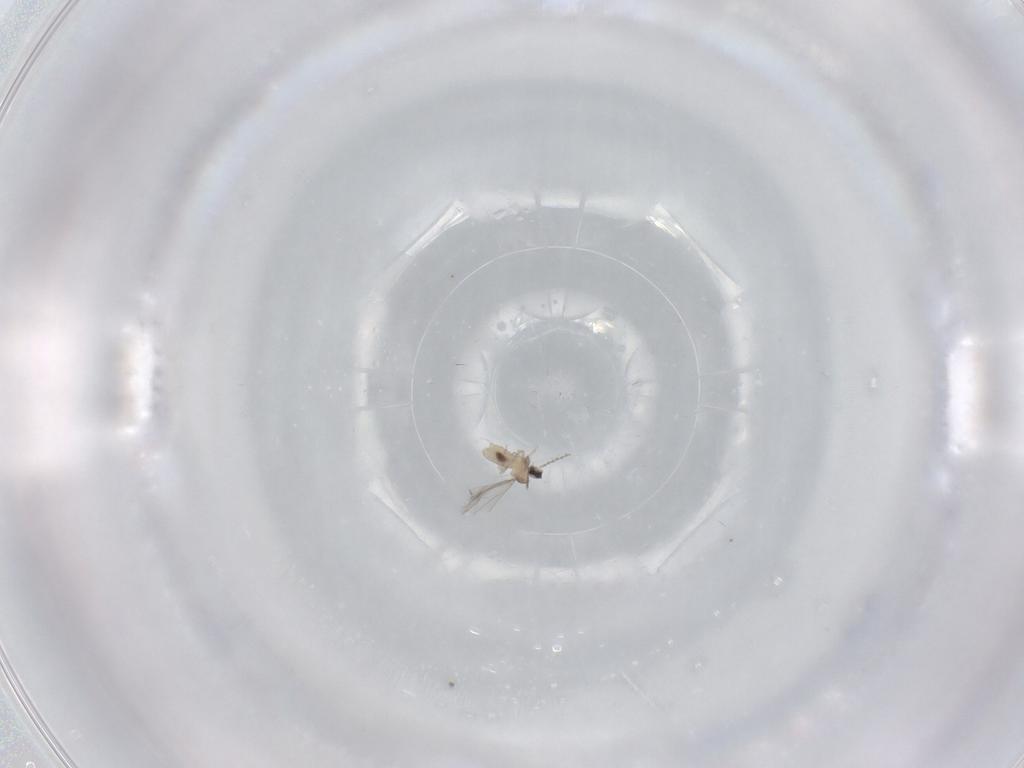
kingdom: Animalia
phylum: Arthropoda
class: Insecta
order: Diptera
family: Cecidomyiidae
